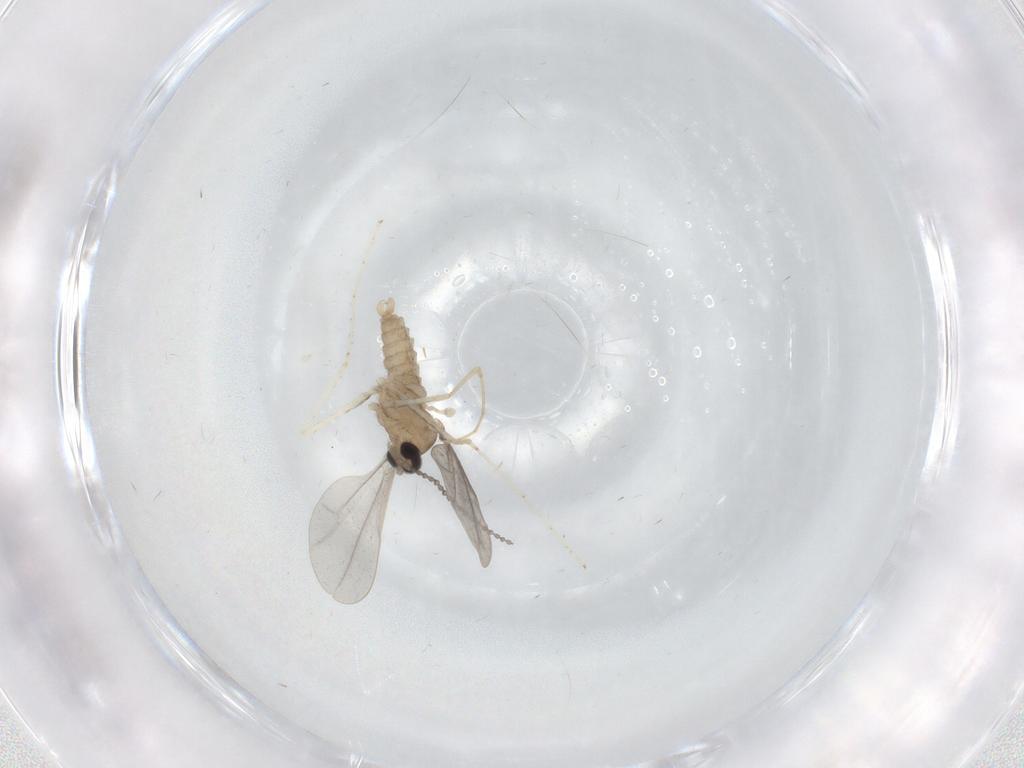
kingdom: Animalia
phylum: Arthropoda
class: Insecta
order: Diptera
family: Cecidomyiidae
